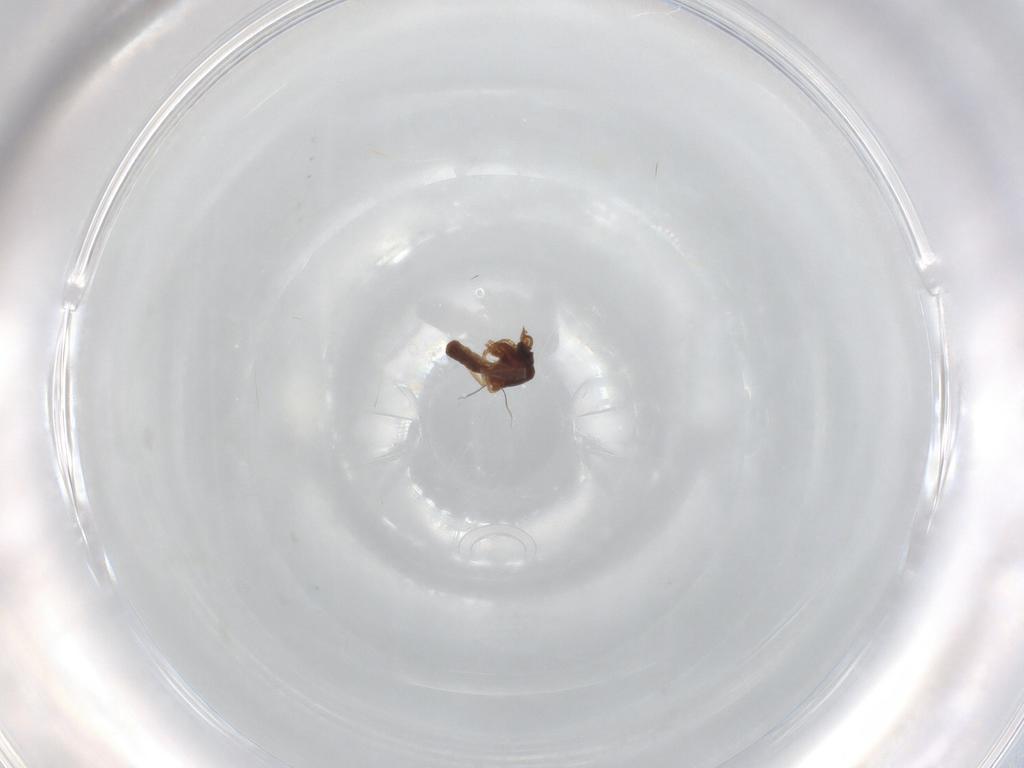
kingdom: Animalia
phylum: Arthropoda
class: Insecta
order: Diptera
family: Ceratopogonidae
